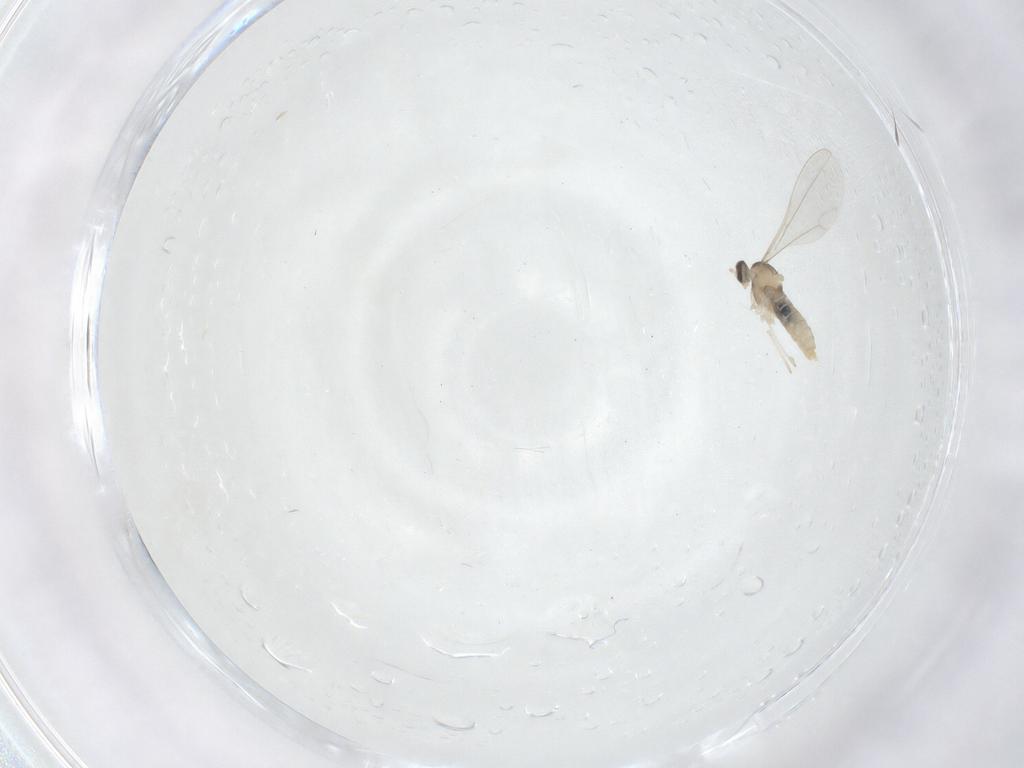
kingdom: Animalia
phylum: Arthropoda
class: Insecta
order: Diptera
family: Cecidomyiidae
